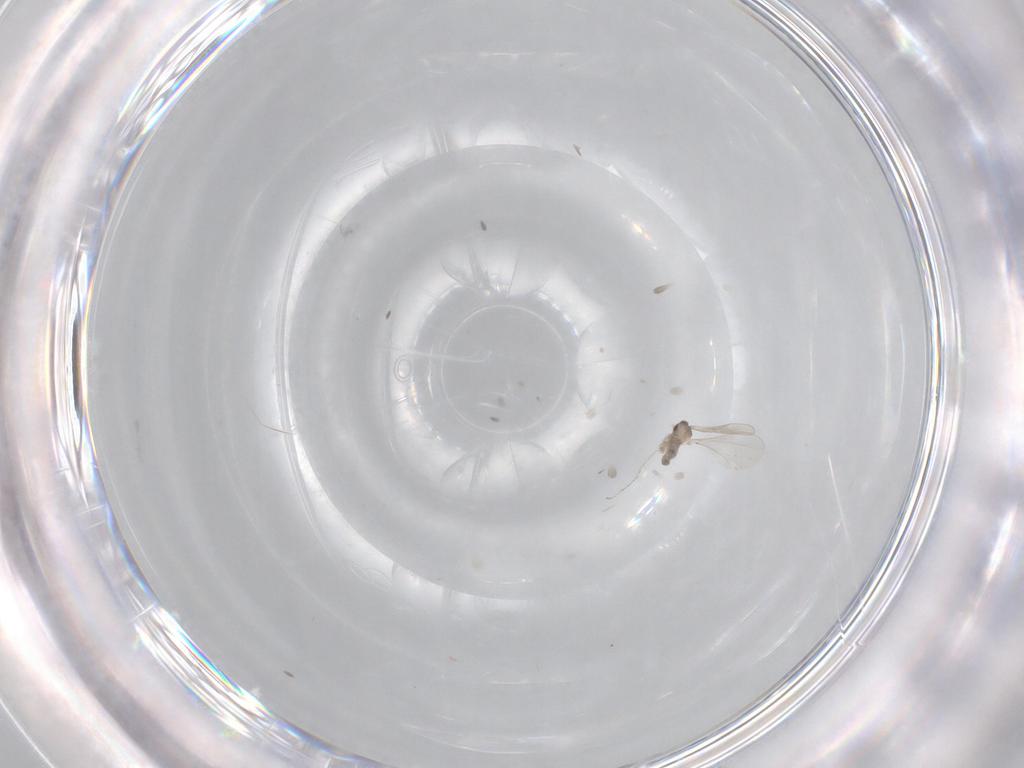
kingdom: Animalia
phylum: Arthropoda
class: Insecta
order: Diptera
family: Cecidomyiidae
